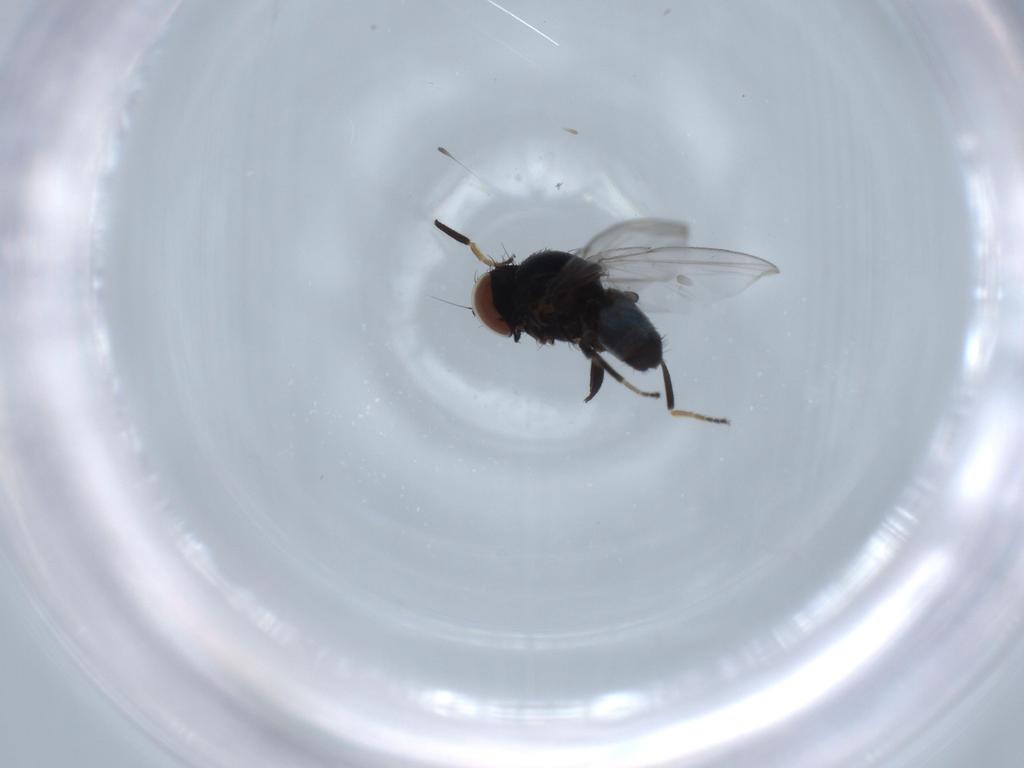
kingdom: Animalia
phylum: Arthropoda
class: Insecta
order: Diptera
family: Milichiidae
